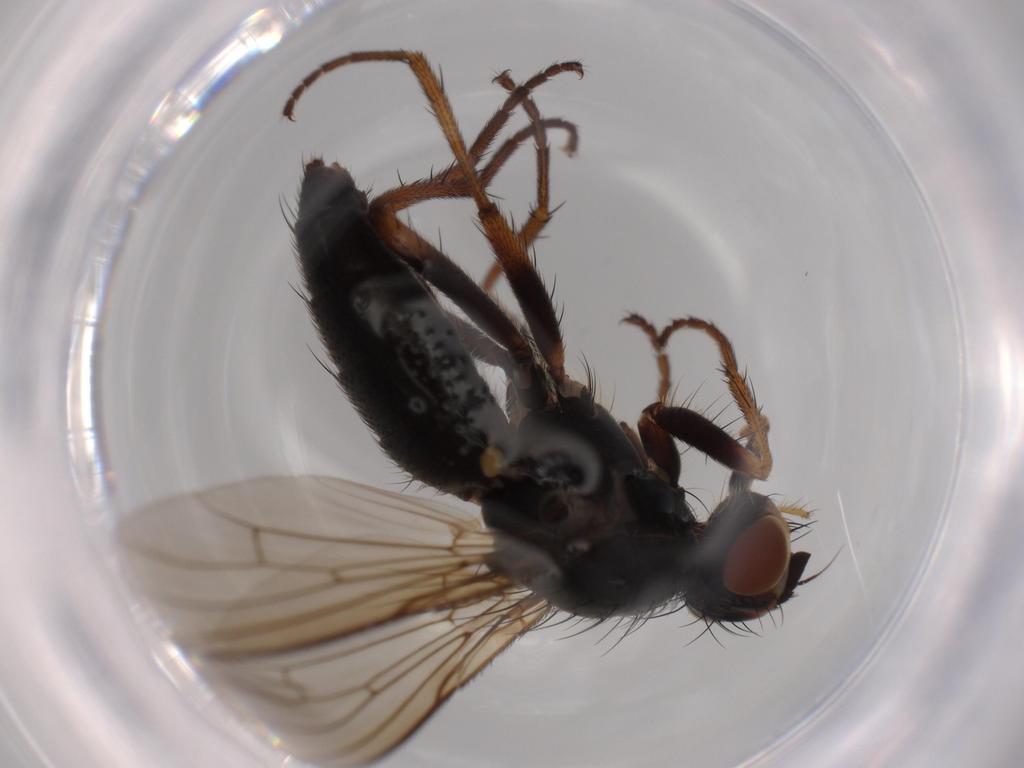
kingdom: Animalia
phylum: Arthropoda
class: Insecta
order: Diptera
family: Scathophagidae
